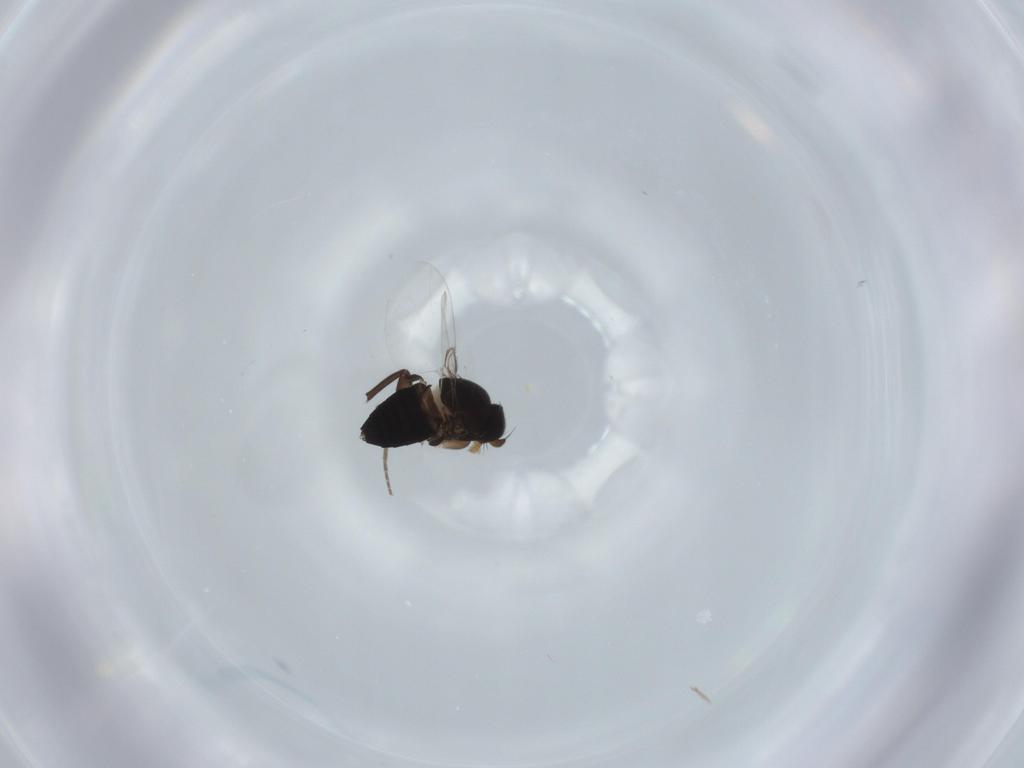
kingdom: Animalia
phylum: Arthropoda
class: Insecta
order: Diptera
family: Phoridae
